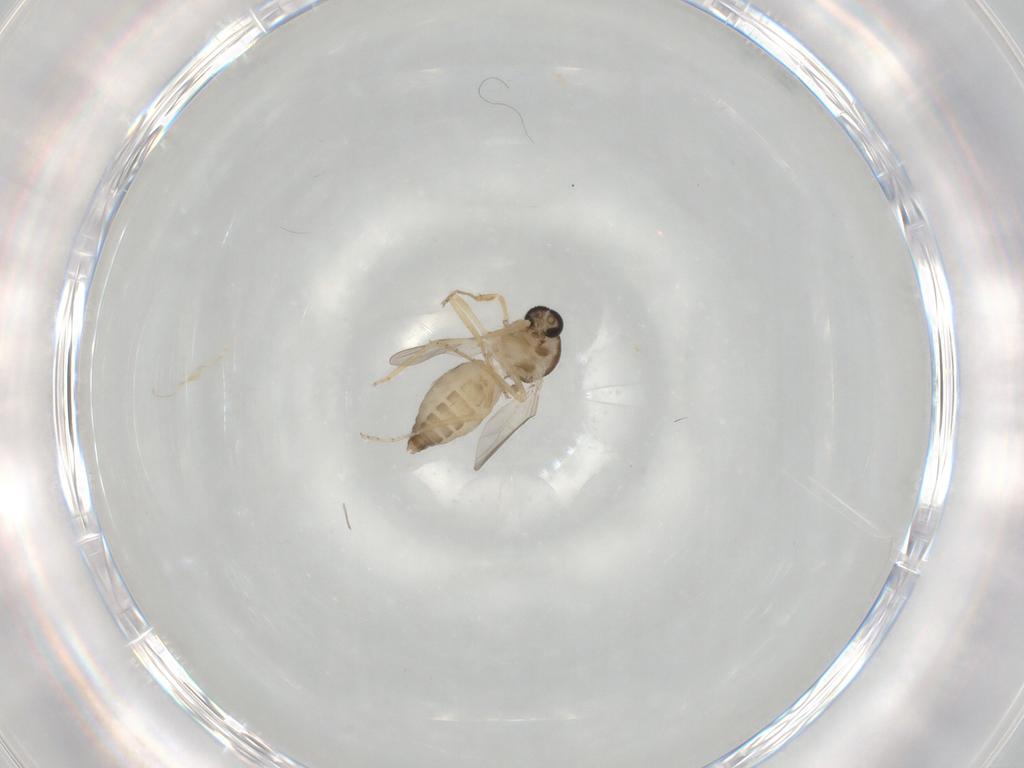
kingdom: Animalia
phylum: Arthropoda
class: Insecta
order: Diptera
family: Ceratopogonidae
